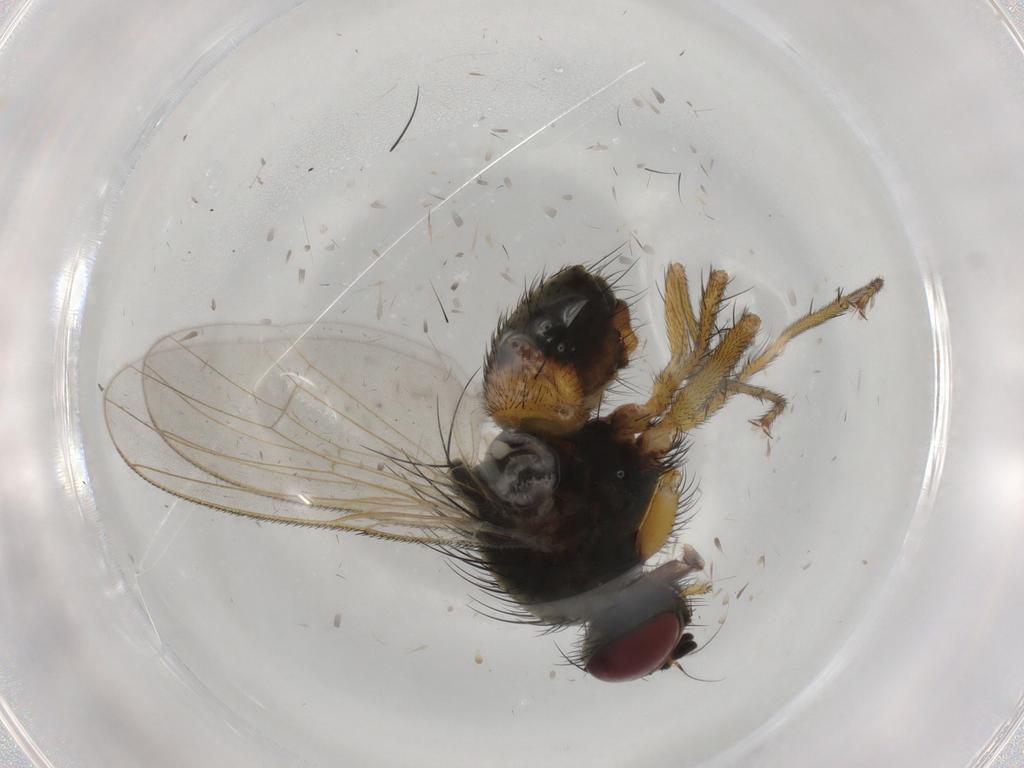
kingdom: Animalia
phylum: Arthropoda
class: Insecta
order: Diptera
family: Muscidae
